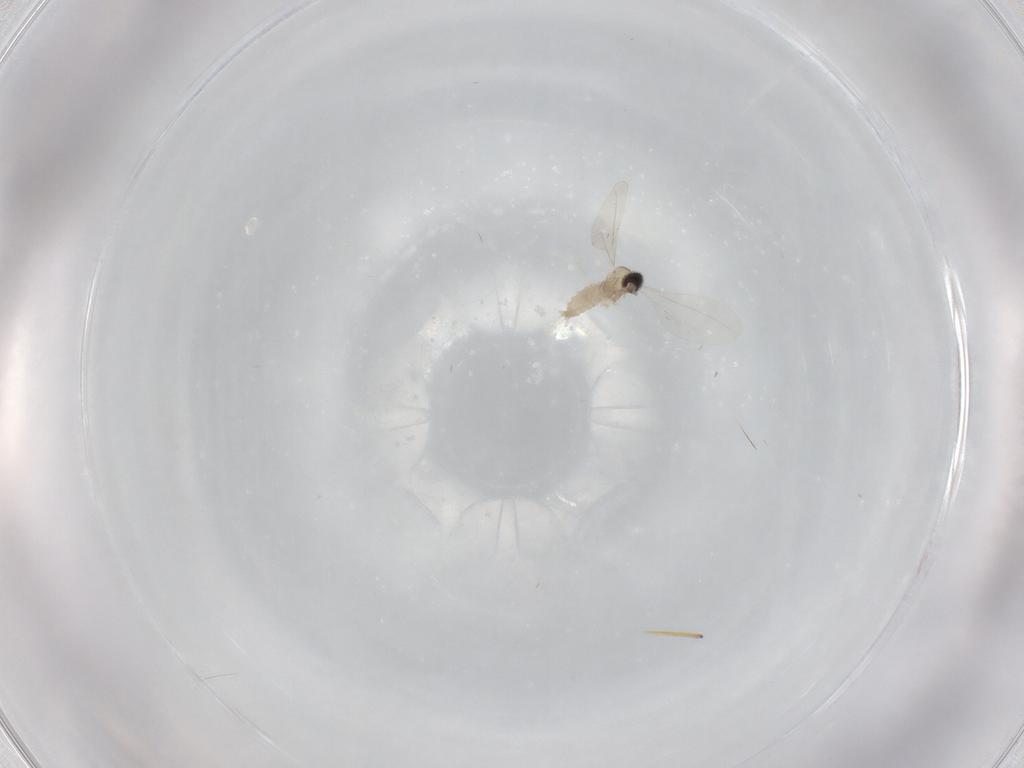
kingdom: Animalia
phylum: Arthropoda
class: Insecta
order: Diptera
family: Cecidomyiidae
